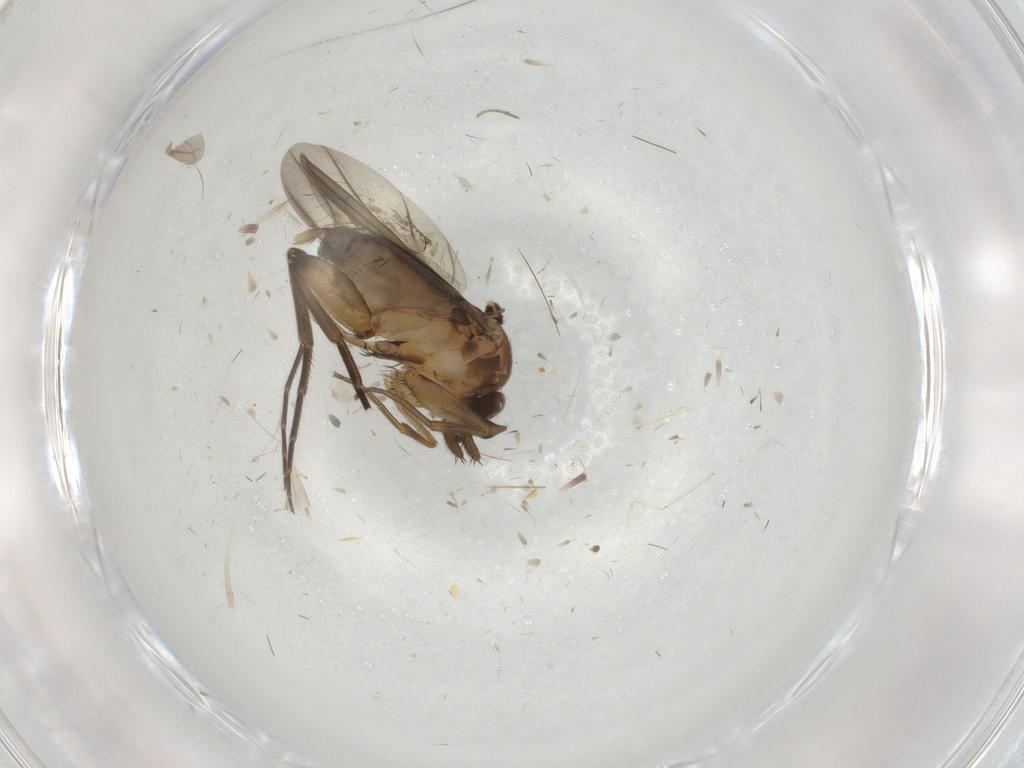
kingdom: Animalia
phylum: Arthropoda
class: Insecta
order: Diptera
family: Phoridae
